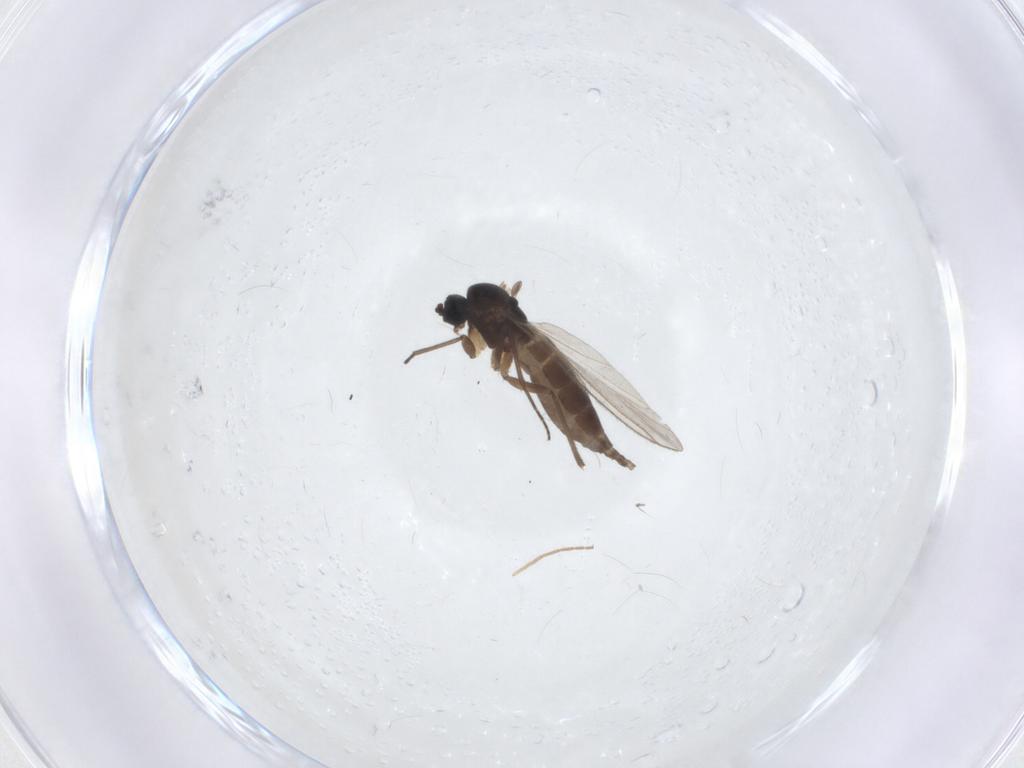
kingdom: Animalia
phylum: Arthropoda
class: Insecta
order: Diptera
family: Sciaridae
